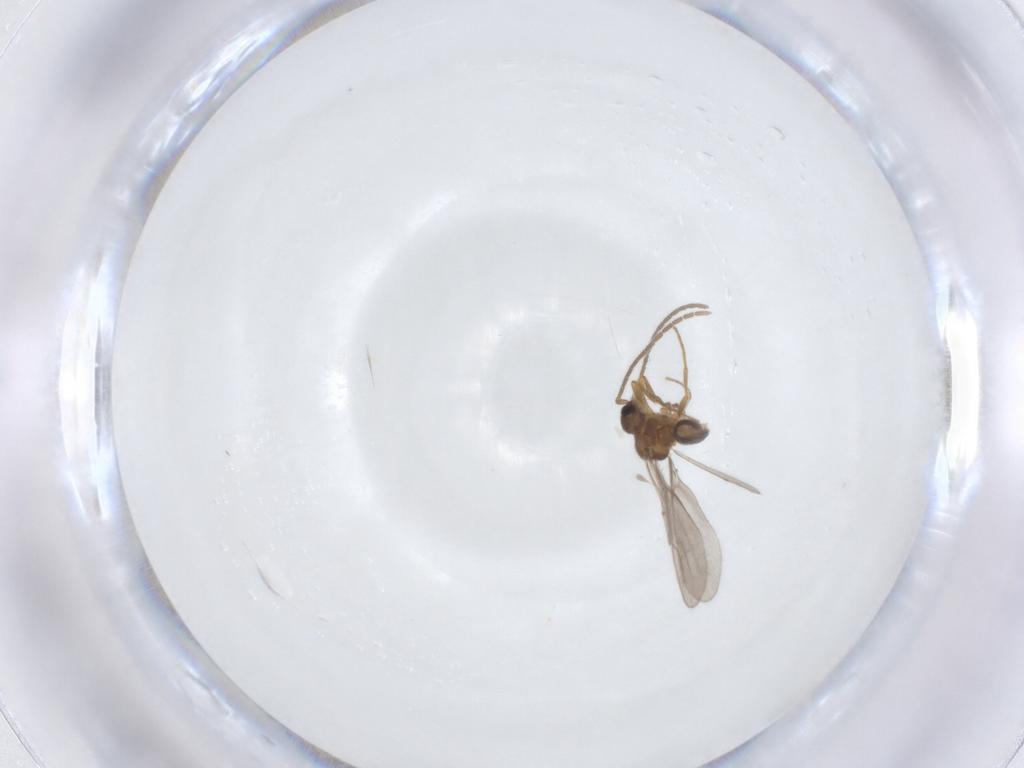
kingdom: Animalia
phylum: Arthropoda
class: Insecta
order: Hymenoptera
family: Formicidae
